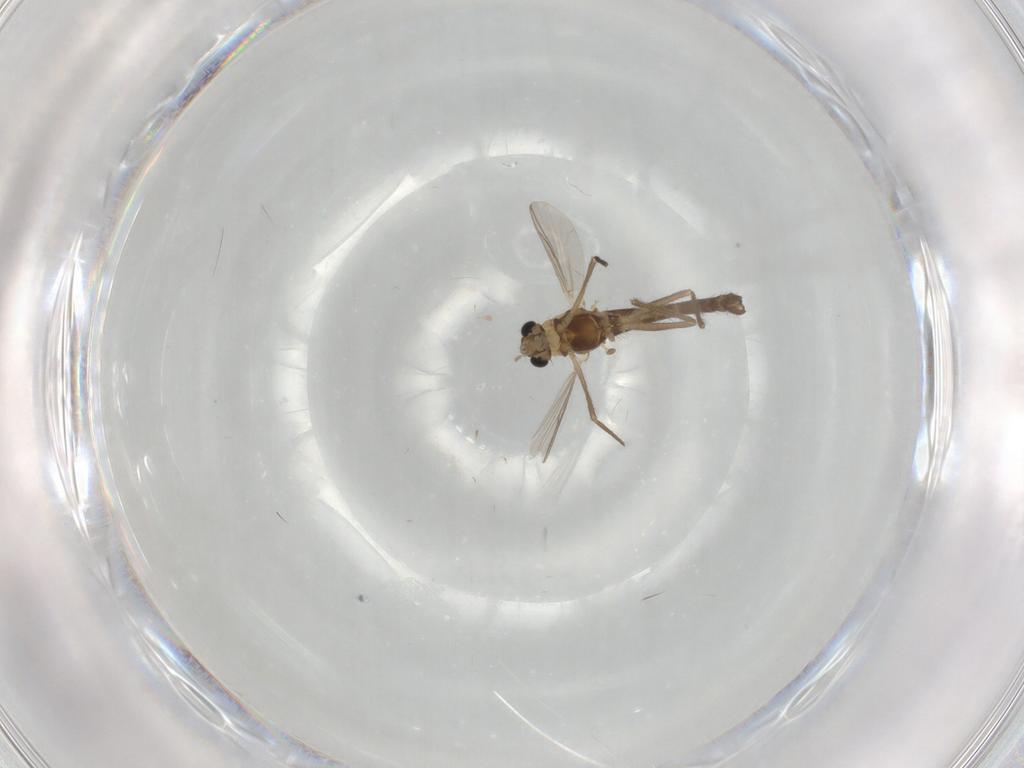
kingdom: Animalia
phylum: Arthropoda
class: Insecta
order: Diptera
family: Chironomidae
